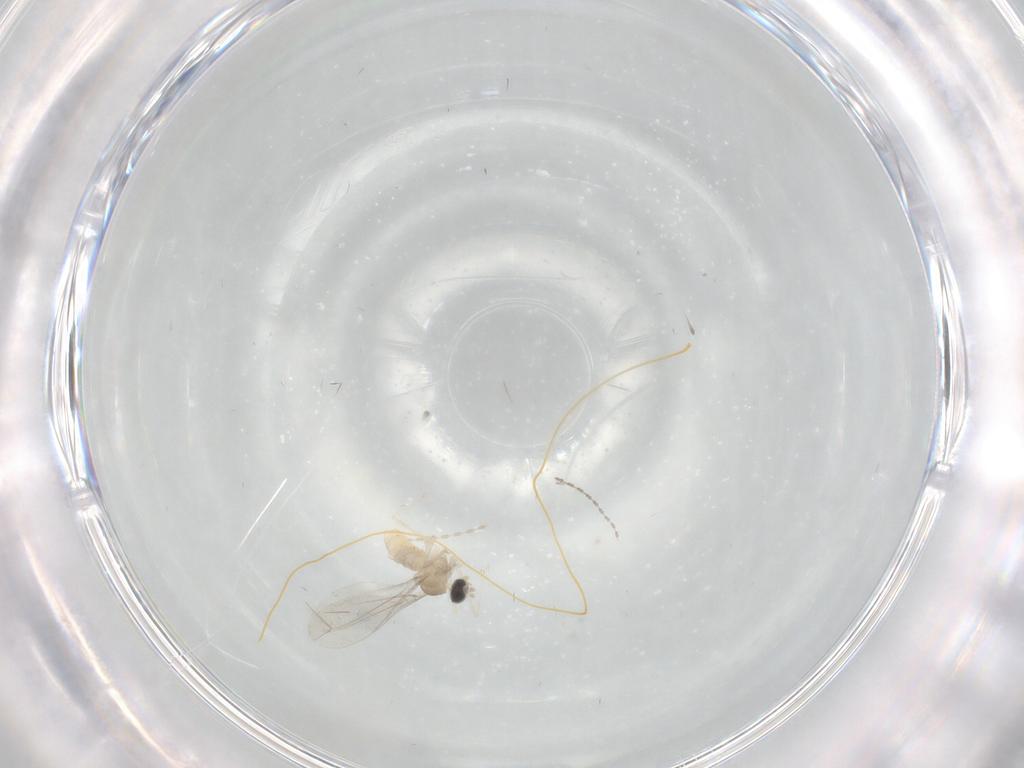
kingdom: Animalia
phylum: Arthropoda
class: Insecta
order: Diptera
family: Cecidomyiidae
